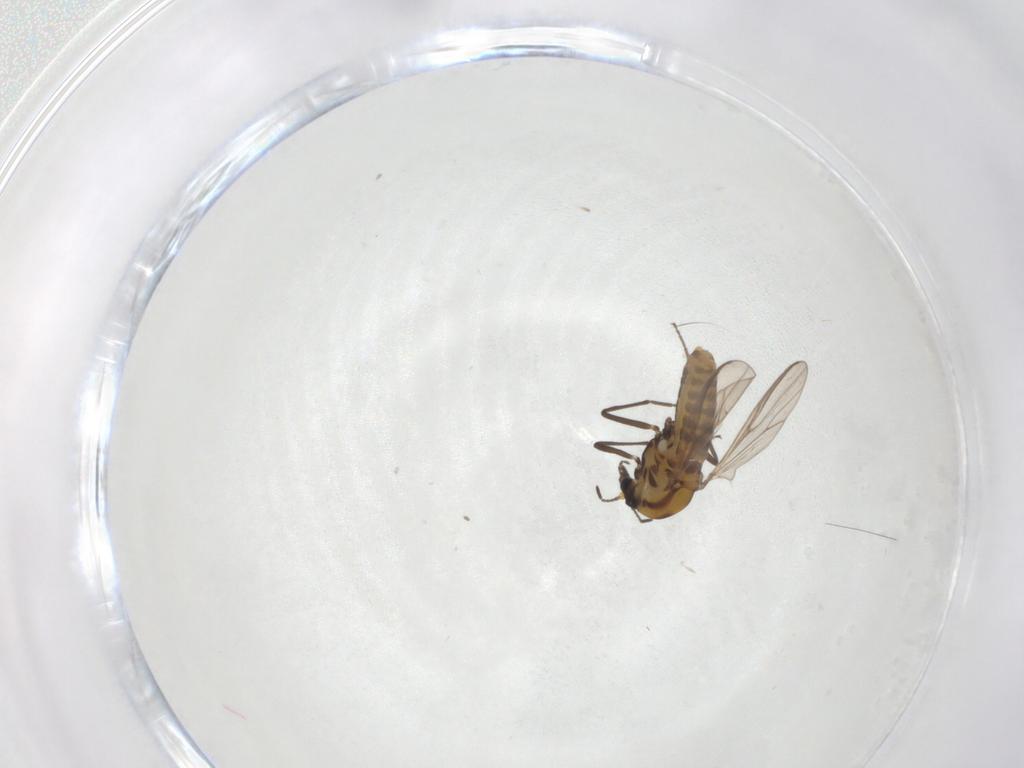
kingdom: Animalia
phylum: Arthropoda
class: Insecta
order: Diptera
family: Chironomidae
